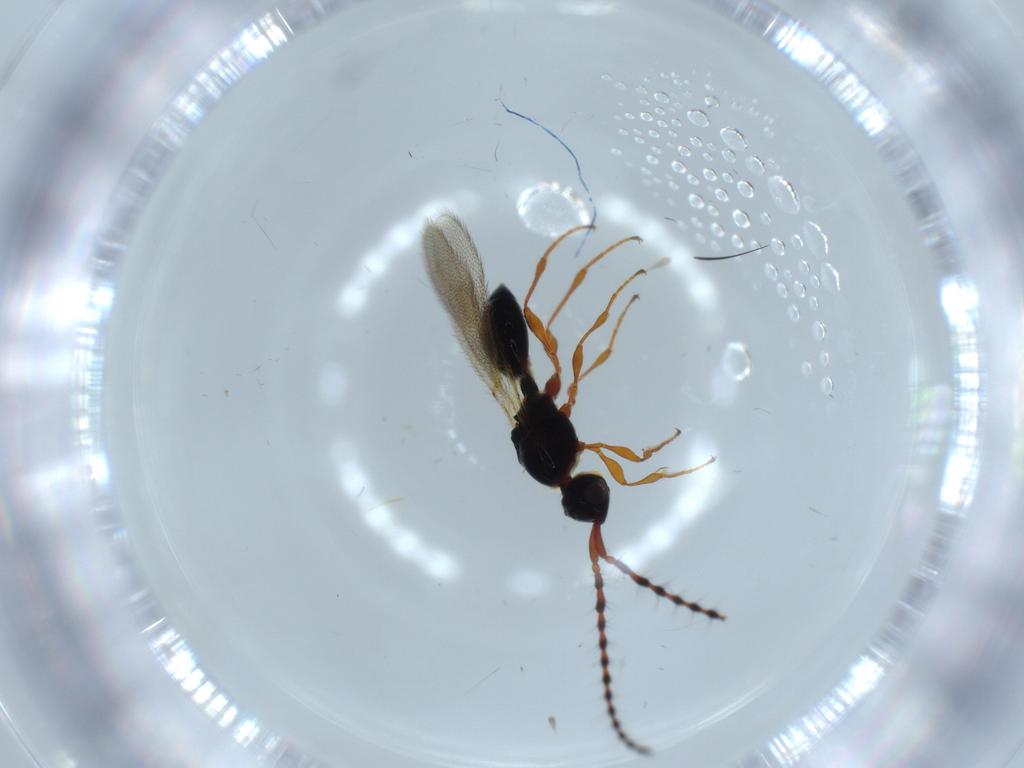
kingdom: Animalia
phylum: Arthropoda
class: Insecta
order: Hymenoptera
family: Diapriidae
